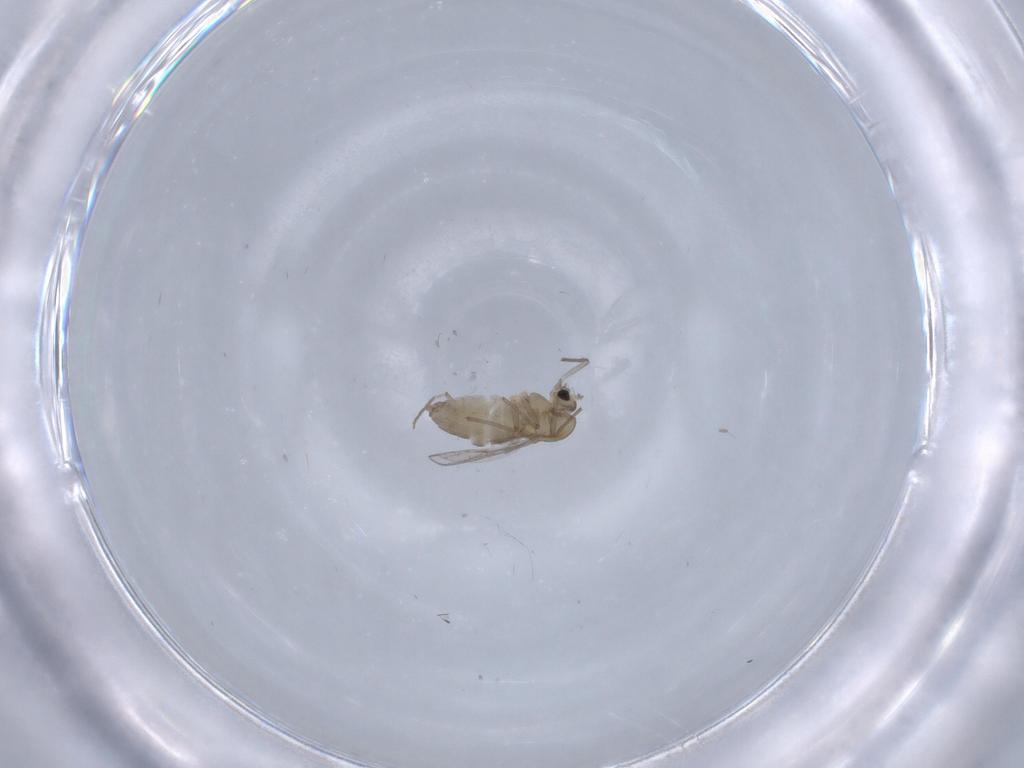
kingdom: Animalia
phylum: Arthropoda
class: Insecta
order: Diptera
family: Chironomidae
